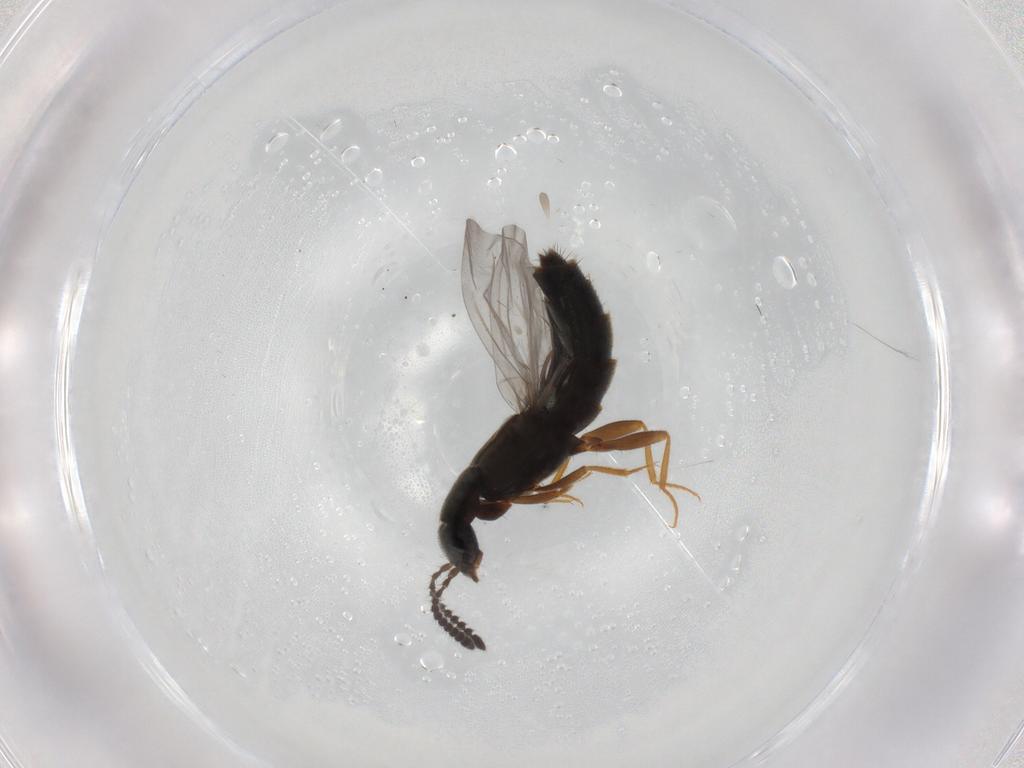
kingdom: Animalia
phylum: Arthropoda
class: Insecta
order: Coleoptera
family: Staphylinidae
